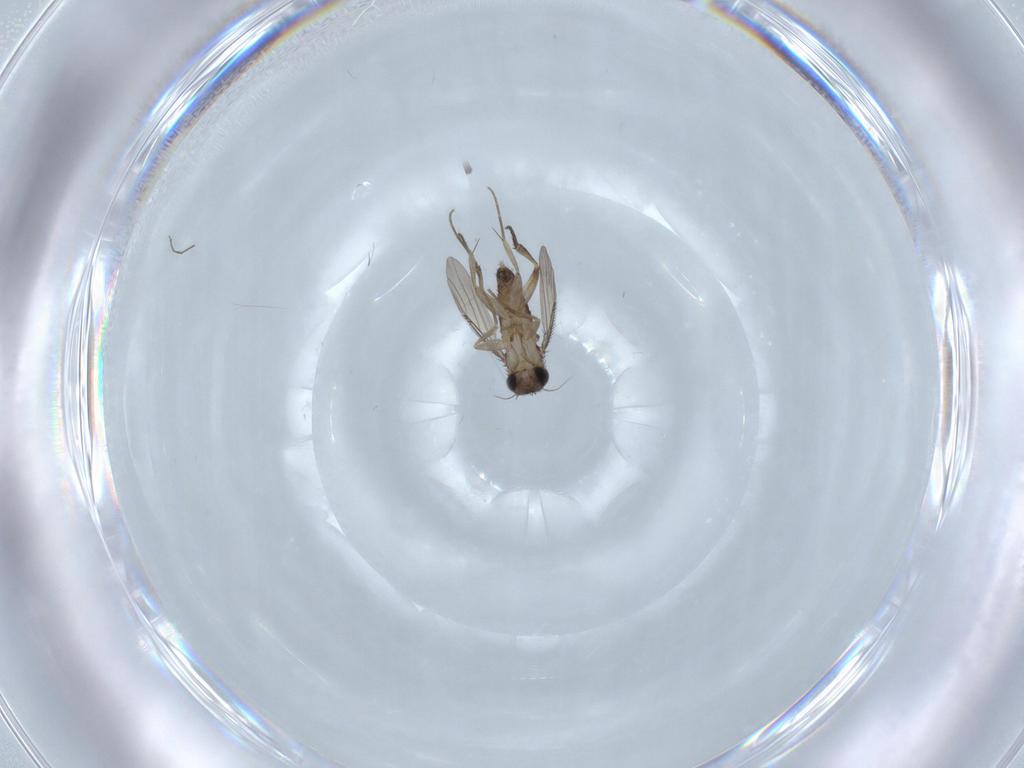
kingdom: Animalia
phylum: Arthropoda
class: Insecta
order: Diptera
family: Phoridae
